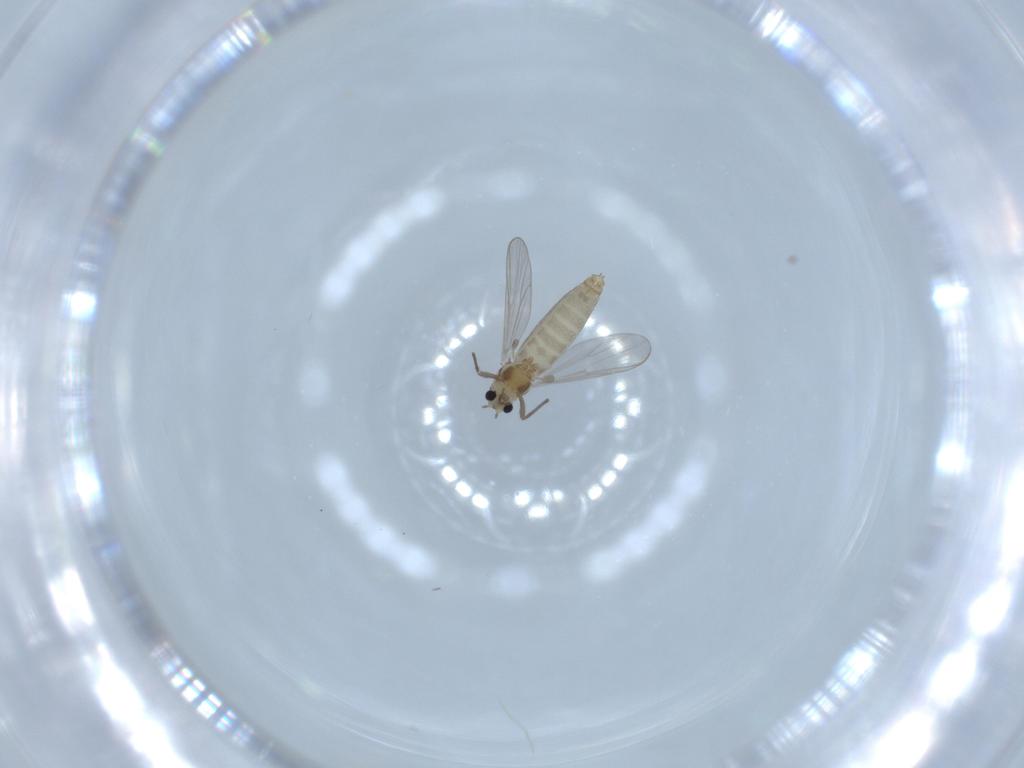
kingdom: Animalia
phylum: Arthropoda
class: Insecta
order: Diptera
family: Chironomidae
